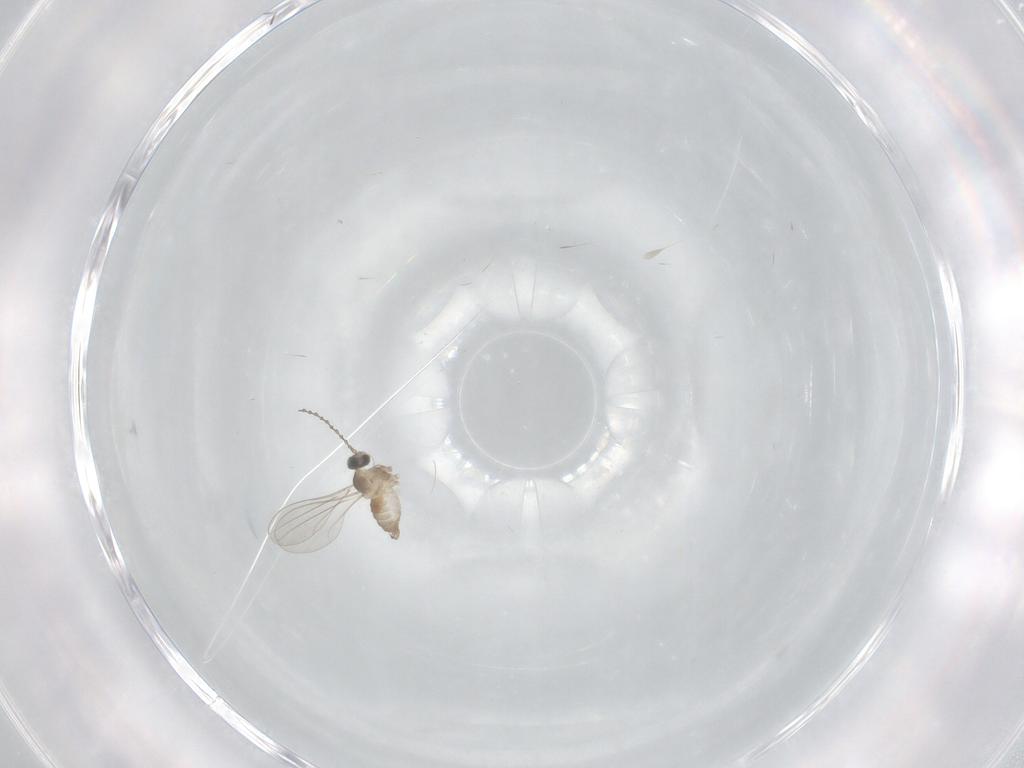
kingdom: Animalia
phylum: Arthropoda
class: Insecta
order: Diptera
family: Cecidomyiidae
